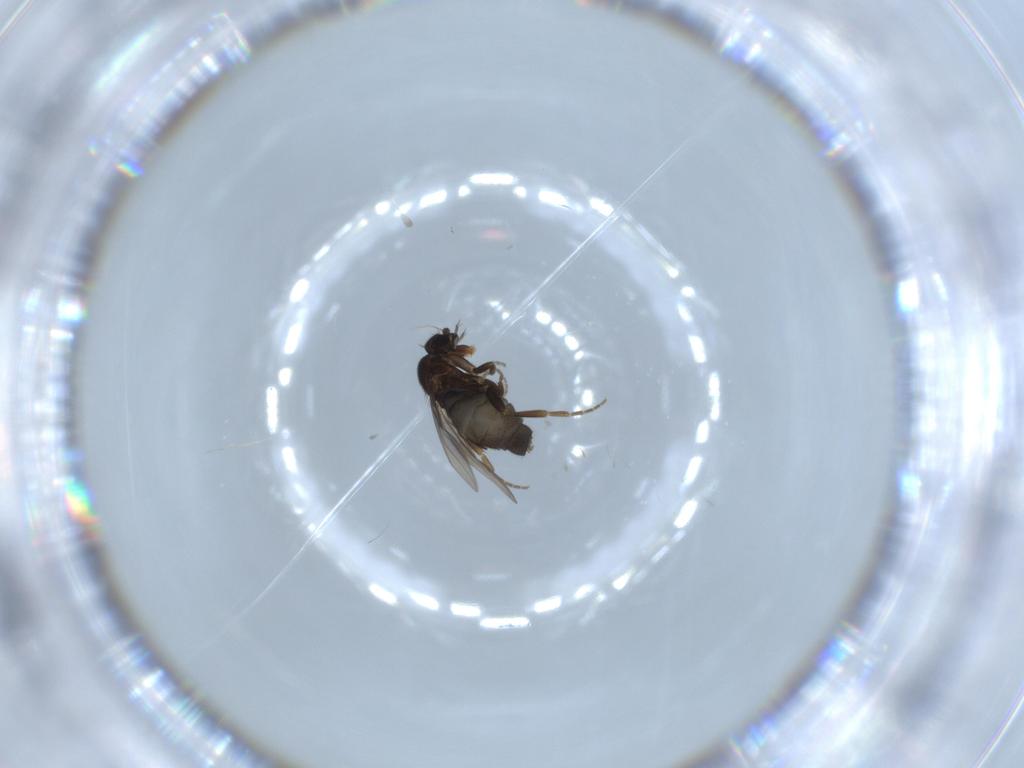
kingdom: Animalia
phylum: Arthropoda
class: Insecta
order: Diptera
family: Phoridae
